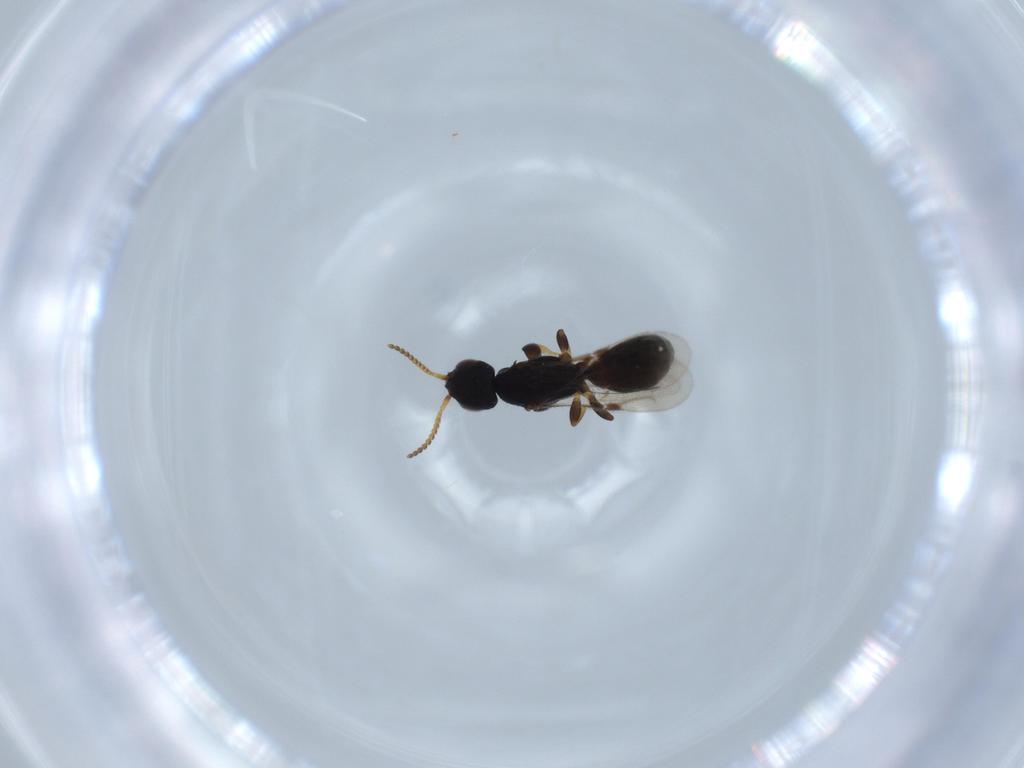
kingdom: Animalia
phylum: Arthropoda
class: Insecta
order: Hymenoptera
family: Bethylidae
